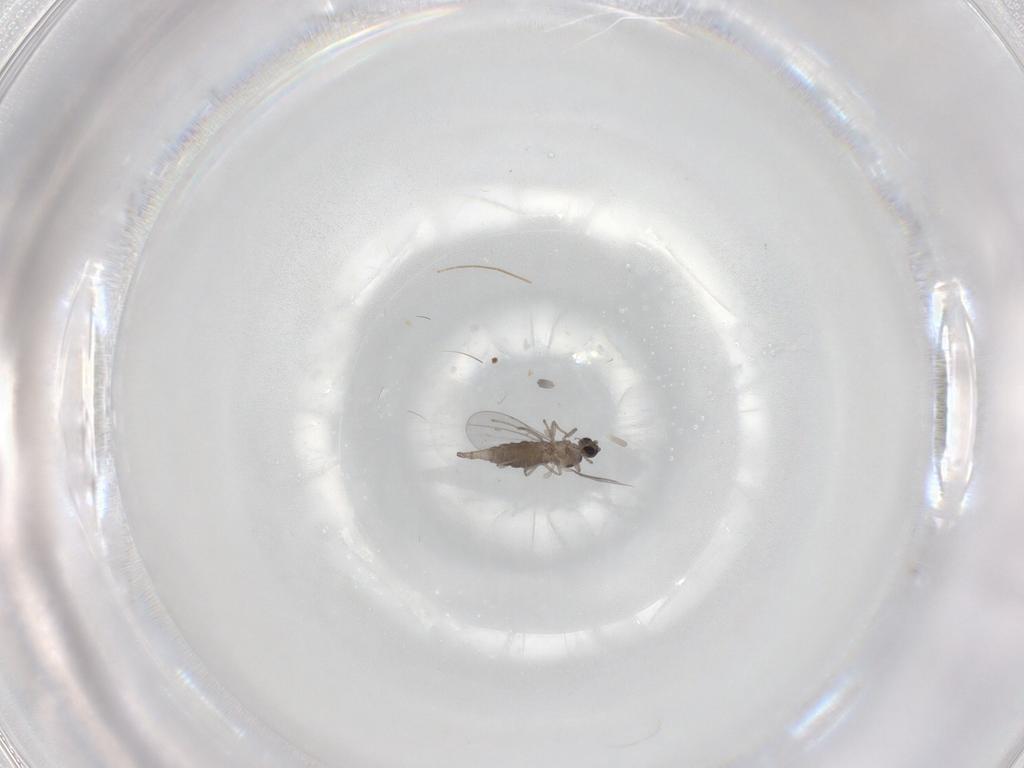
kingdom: Animalia
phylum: Arthropoda
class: Insecta
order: Diptera
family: Cecidomyiidae
